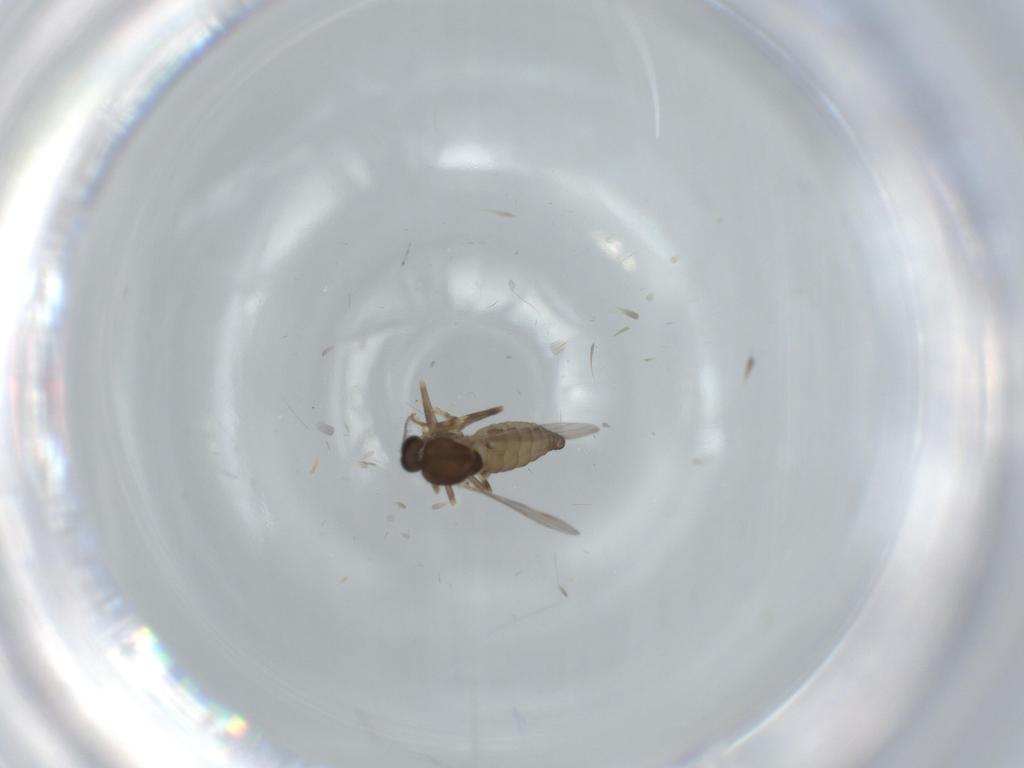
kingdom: Animalia
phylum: Arthropoda
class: Insecta
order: Diptera
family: Ceratopogonidae
